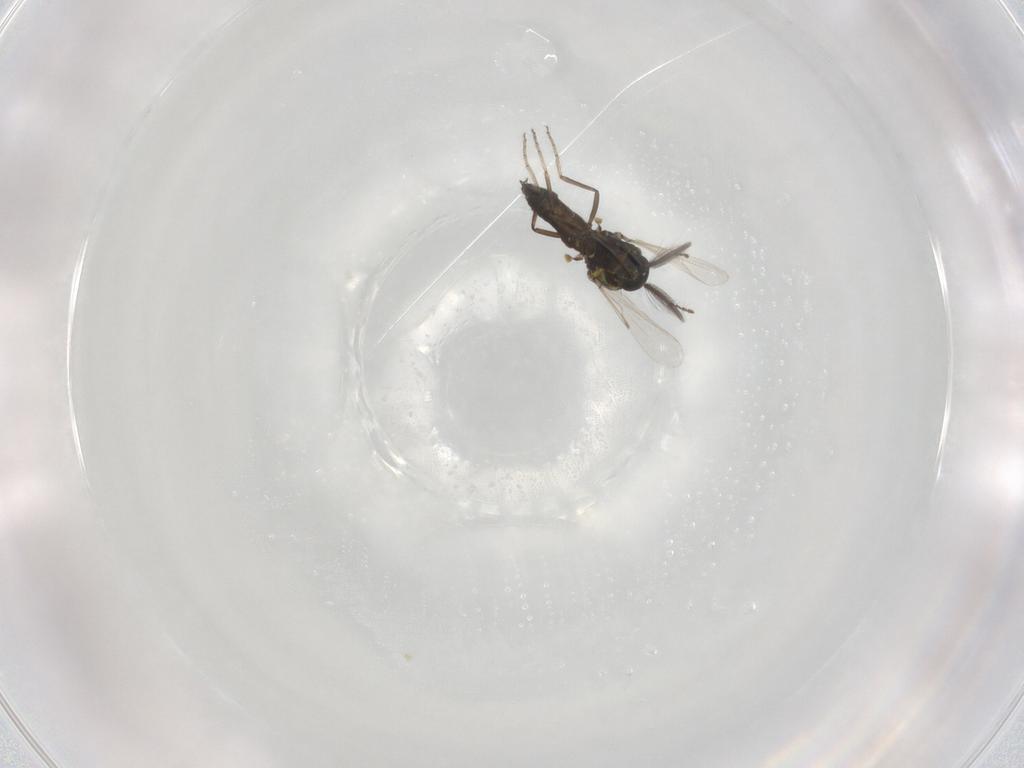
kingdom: Animalia
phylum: Arthropoda
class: Insecta
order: Diptera
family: Ceratopogonidae
